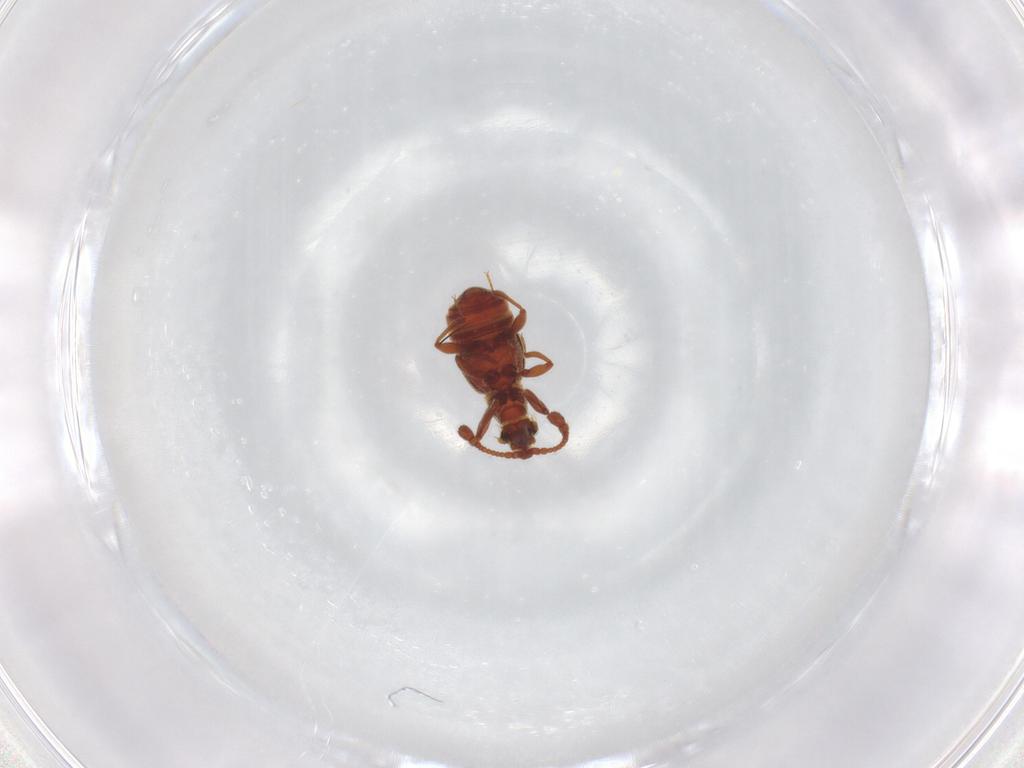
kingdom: Animalia
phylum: Arthropoda
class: Insecta
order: Coleoptera
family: Staphylinidae
